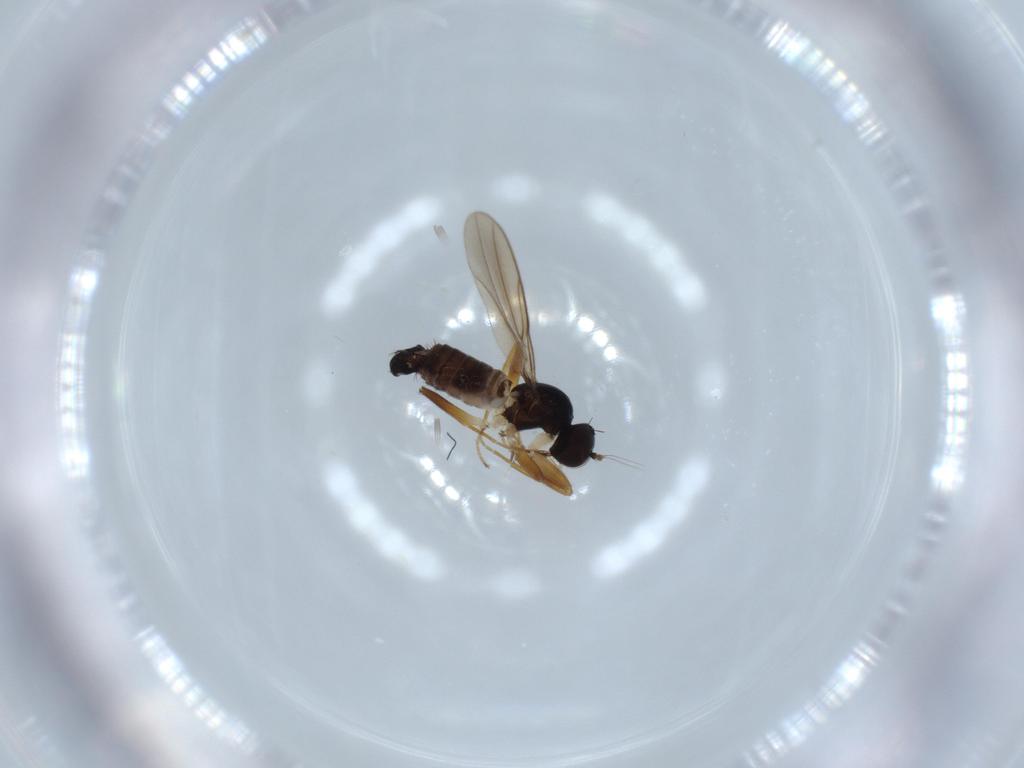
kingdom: Animalia
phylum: Arthropoda
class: Insecta
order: Diptera
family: Hybotidae
